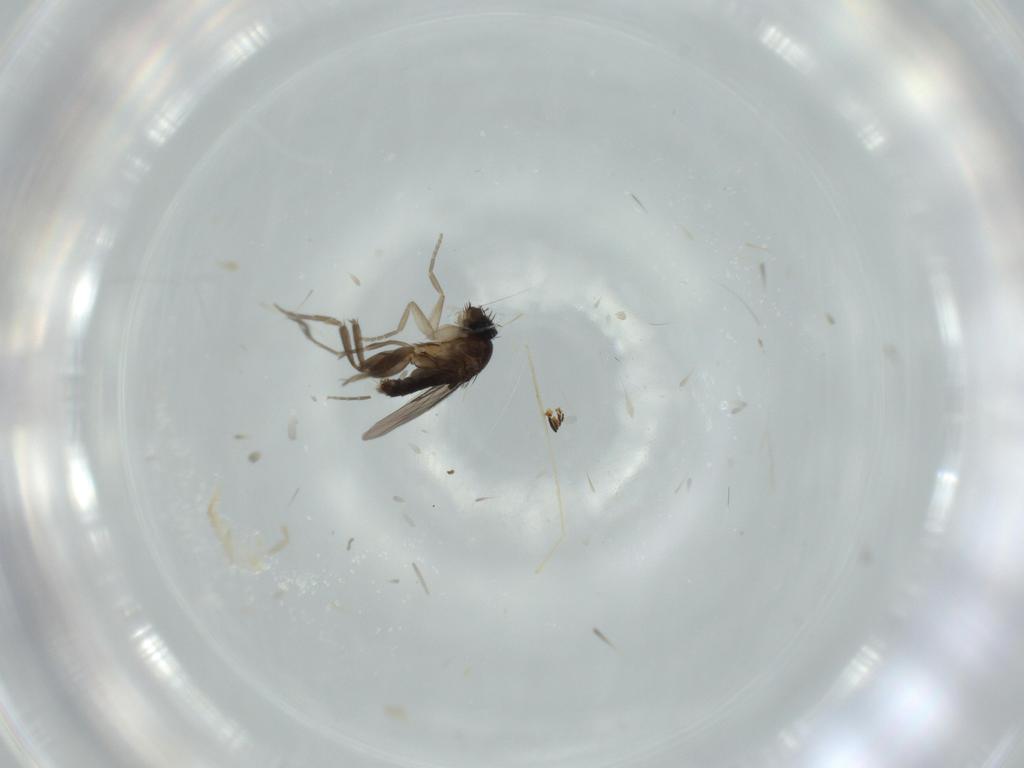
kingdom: Animalia
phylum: Arthropoda
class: Insecta
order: Diptera
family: Phoridae
